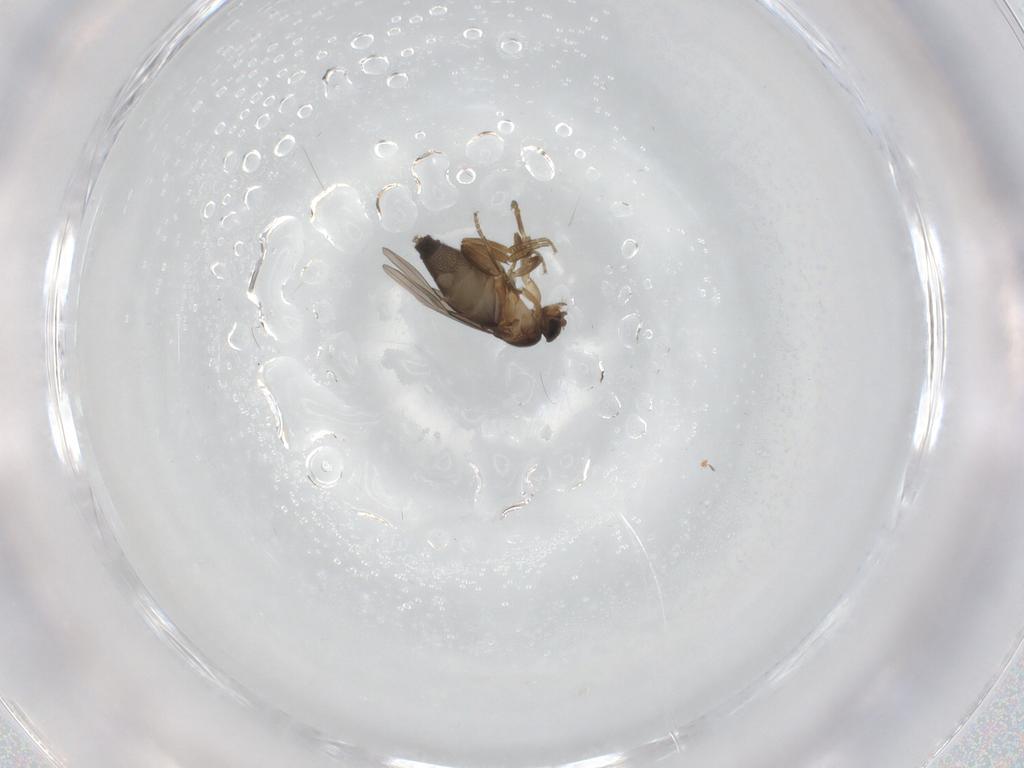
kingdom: Animalia
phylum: Arthropoda
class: Insecta
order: Diptera
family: Phoridae
